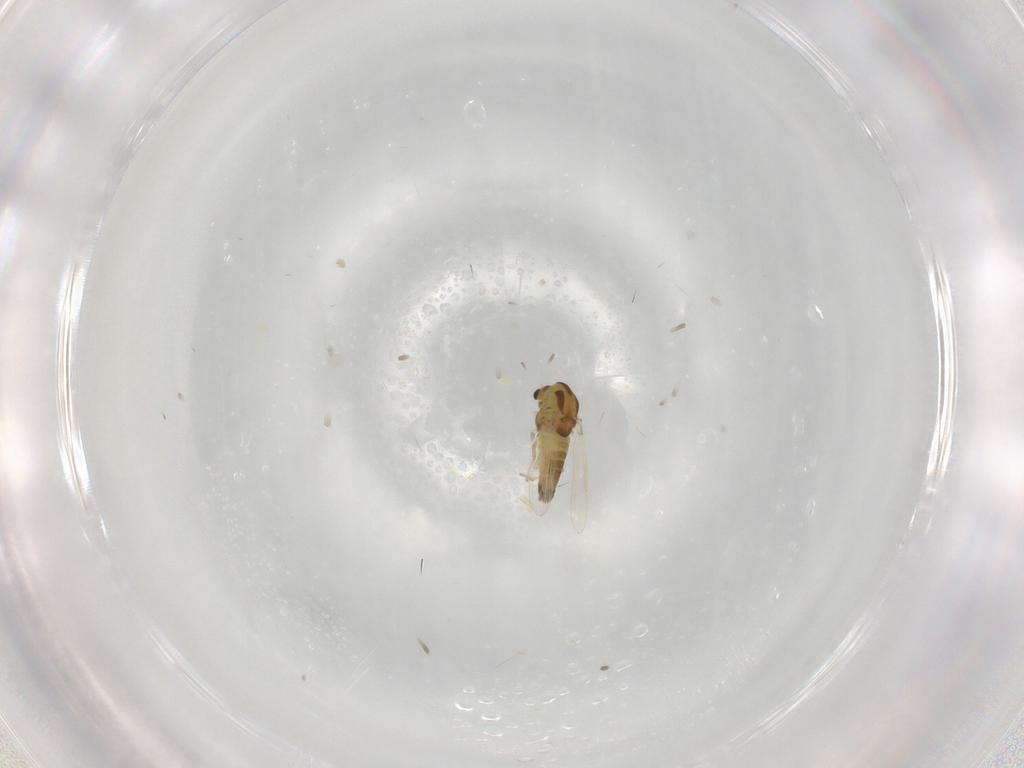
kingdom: Animalia
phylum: Arthropoda
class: Insecta
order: Diptera
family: Chironomidae
